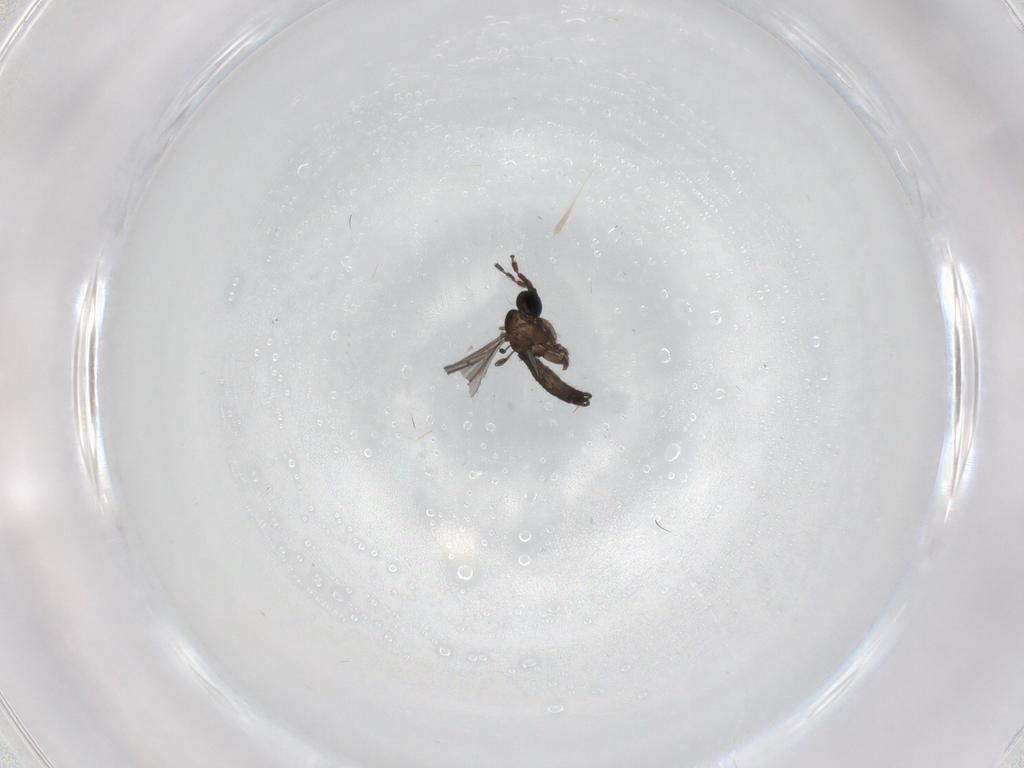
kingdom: Animalia
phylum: Arthropoda
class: Insecta
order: Diptera
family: Sciaridae
